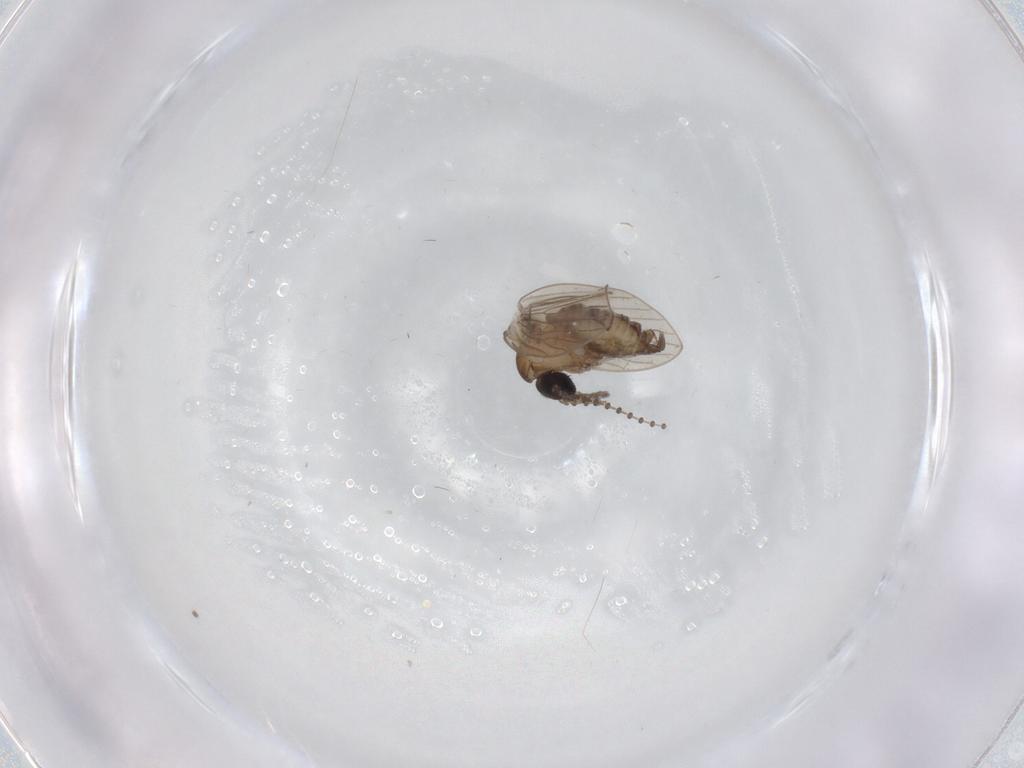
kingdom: Animalia
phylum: Arthropoda
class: Insecta
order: Diptera
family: Psychodidae
